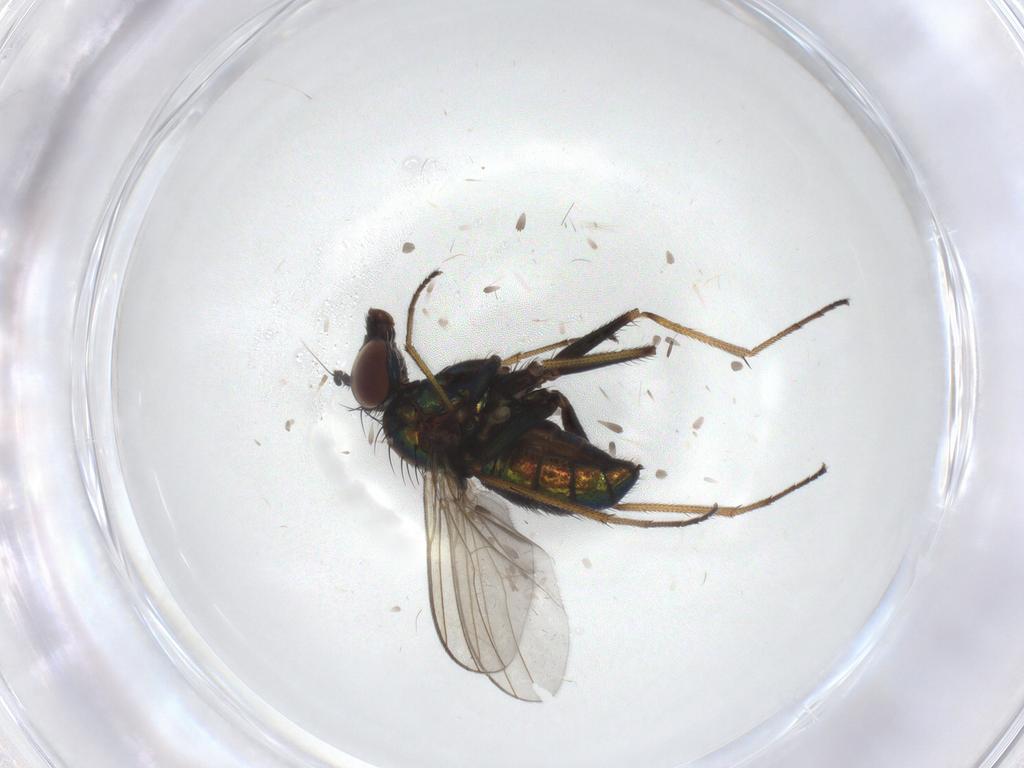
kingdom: Animalia
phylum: Arthropoda
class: Insecta
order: Diptera
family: Dolichopodidae
